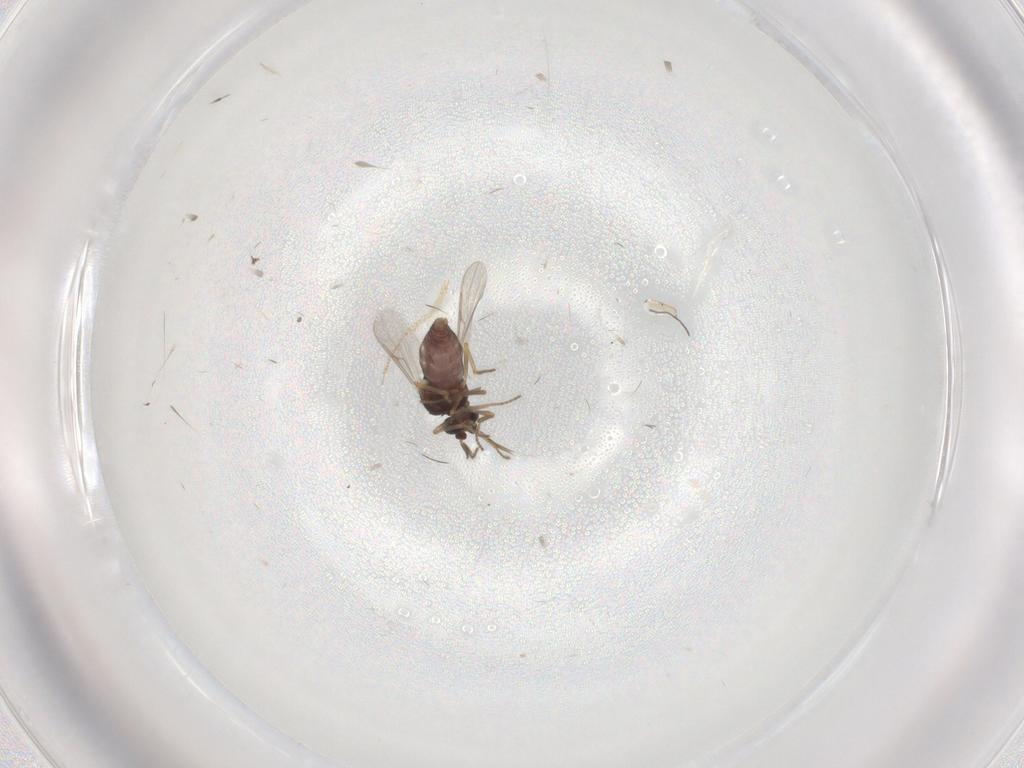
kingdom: Animalia
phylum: Arthropoda
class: Insecta
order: Diptera
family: Ceratopogonidae
